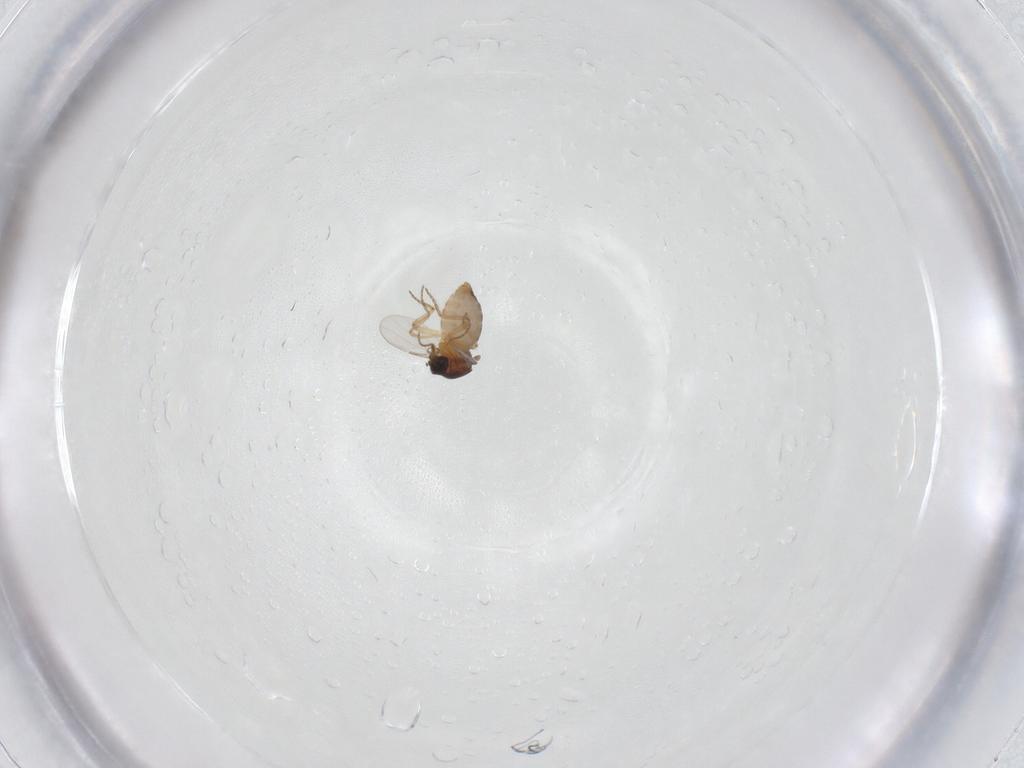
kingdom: Animalia
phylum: Arthropoda
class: Insecta
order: Diptera
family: Ceratopogonidae
